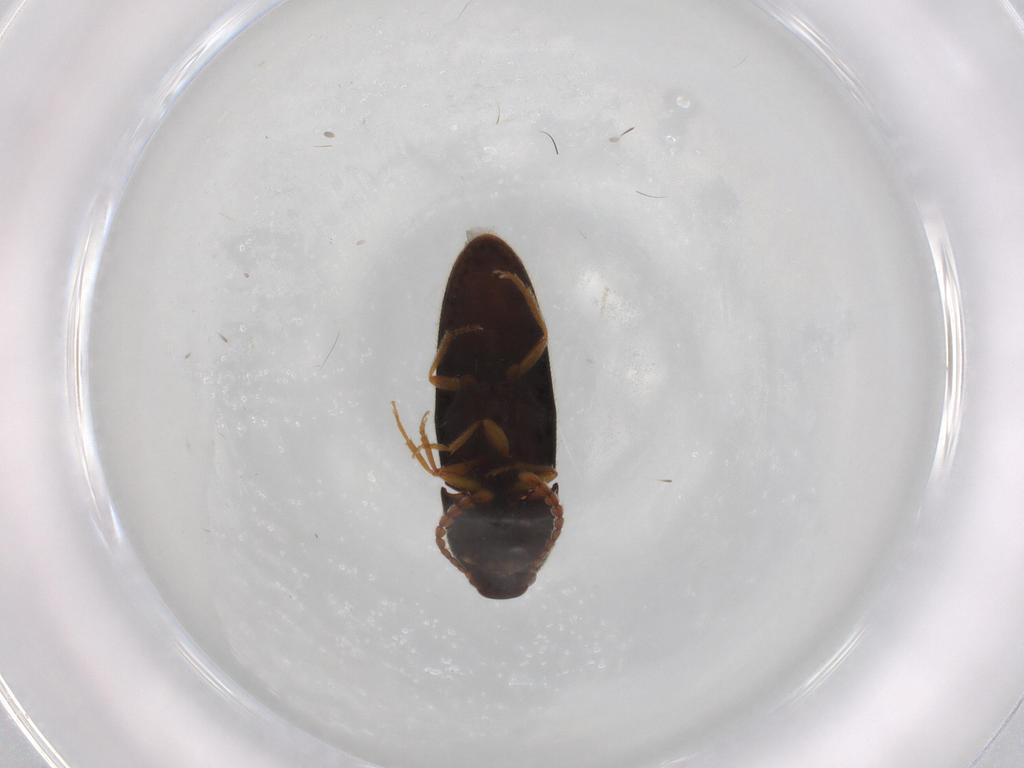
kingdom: Animalia
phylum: Arthropoda
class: Insecta
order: Coleoptera
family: Elateridae
